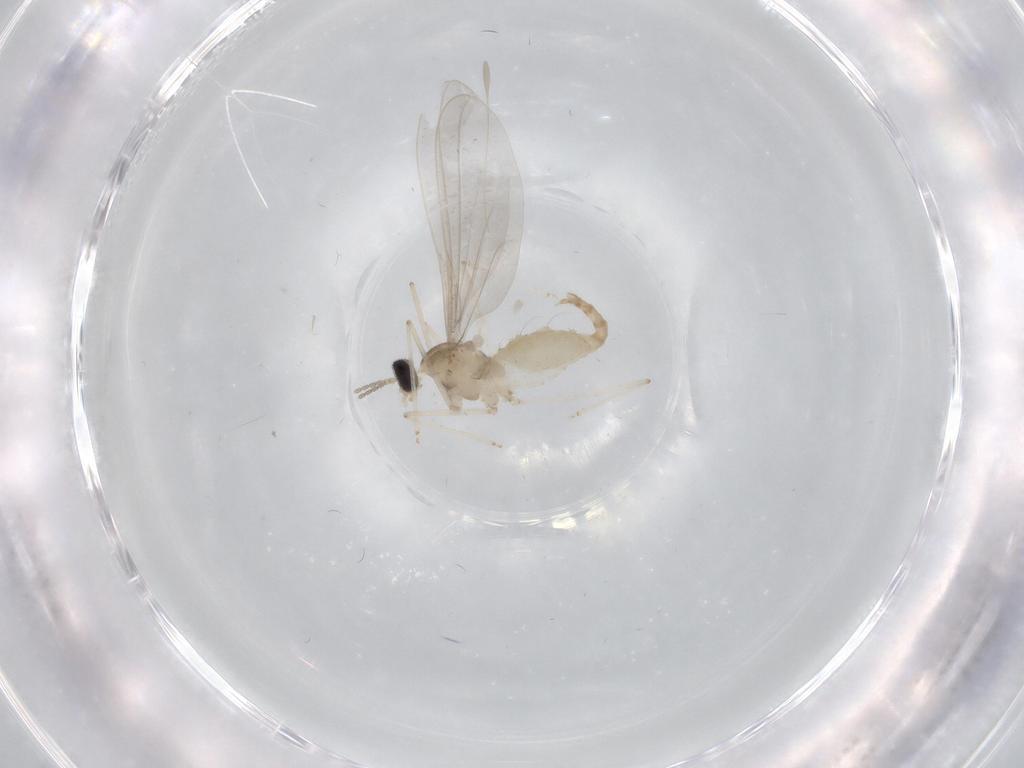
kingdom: Animalia
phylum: Arthropoda
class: Insecta
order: Diptera
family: Cecidomyiidae
